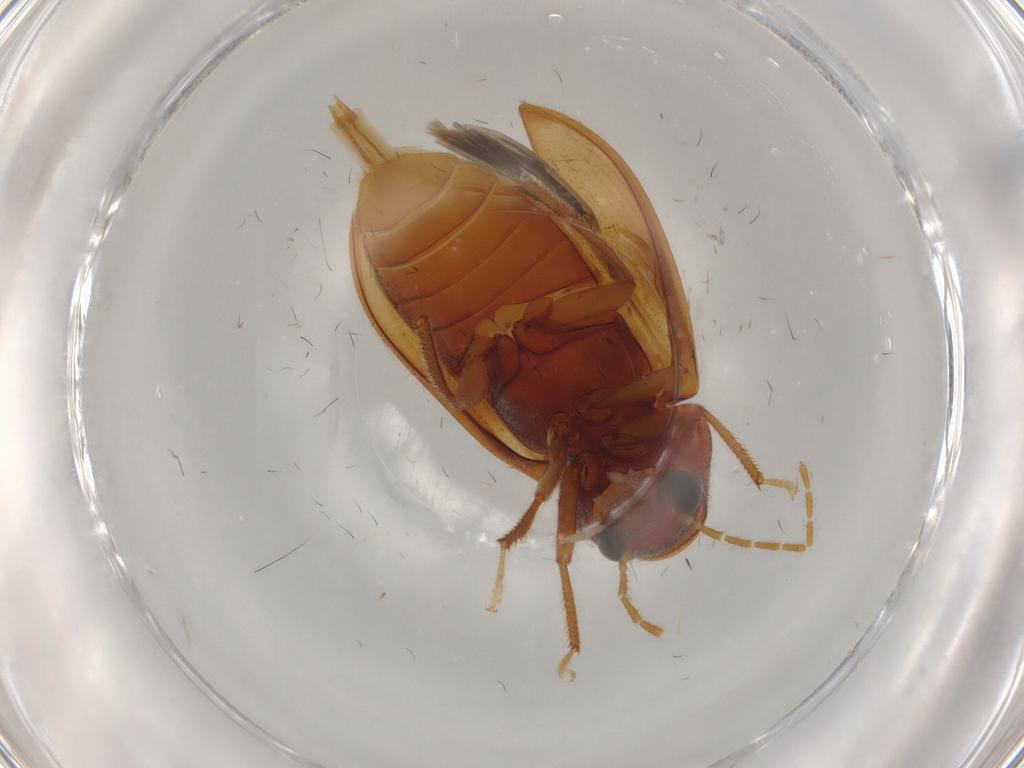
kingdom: Animalia
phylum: Arthropoda
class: Insecta
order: Coleoptera
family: Ptilodactylidae
